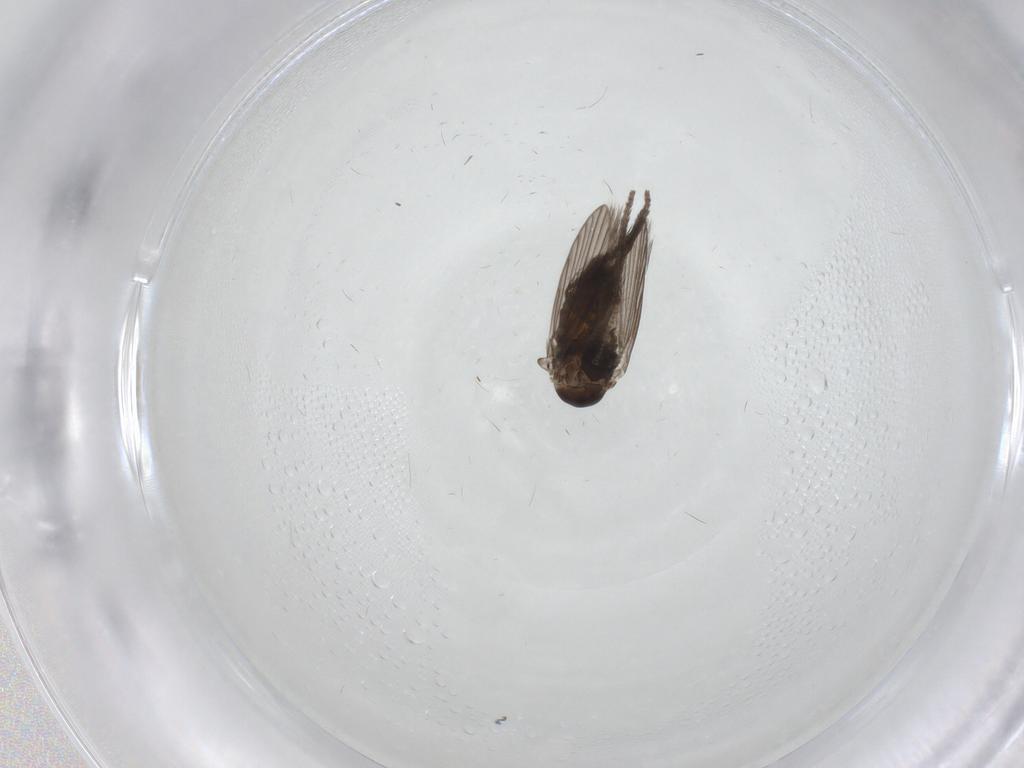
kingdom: Animalia
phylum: Arthropoda
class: Insecta
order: Diptera
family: Psychodidae
